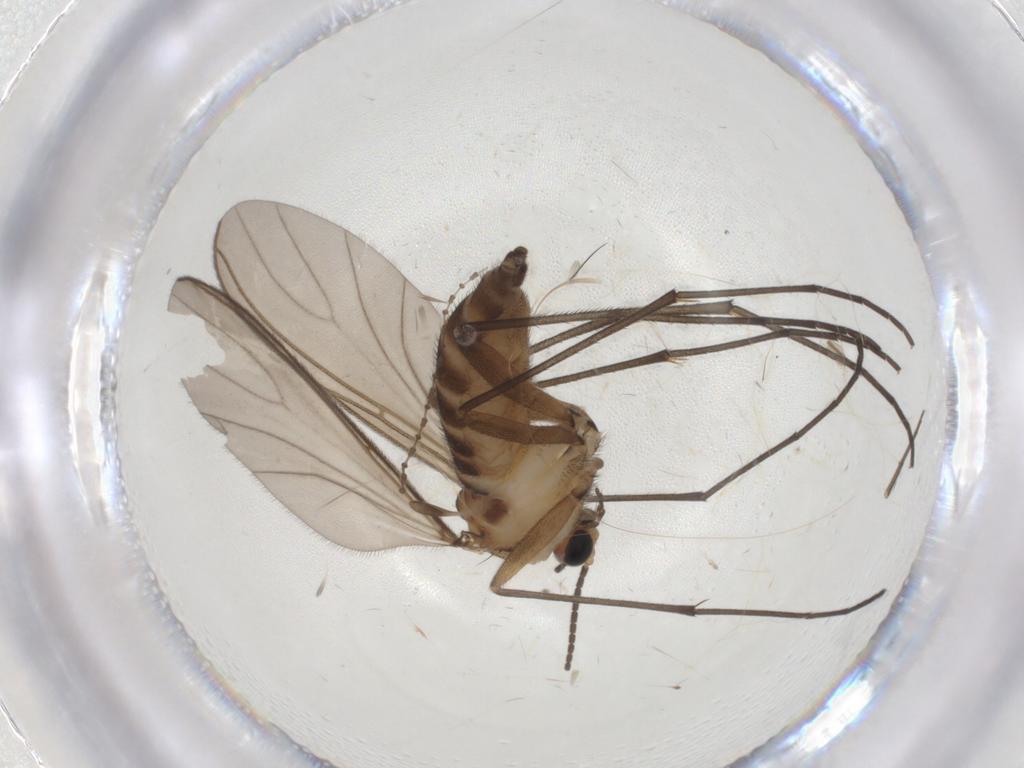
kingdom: Animalia
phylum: Arthropoda
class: Insecta
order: Diptera
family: Sciaridae
